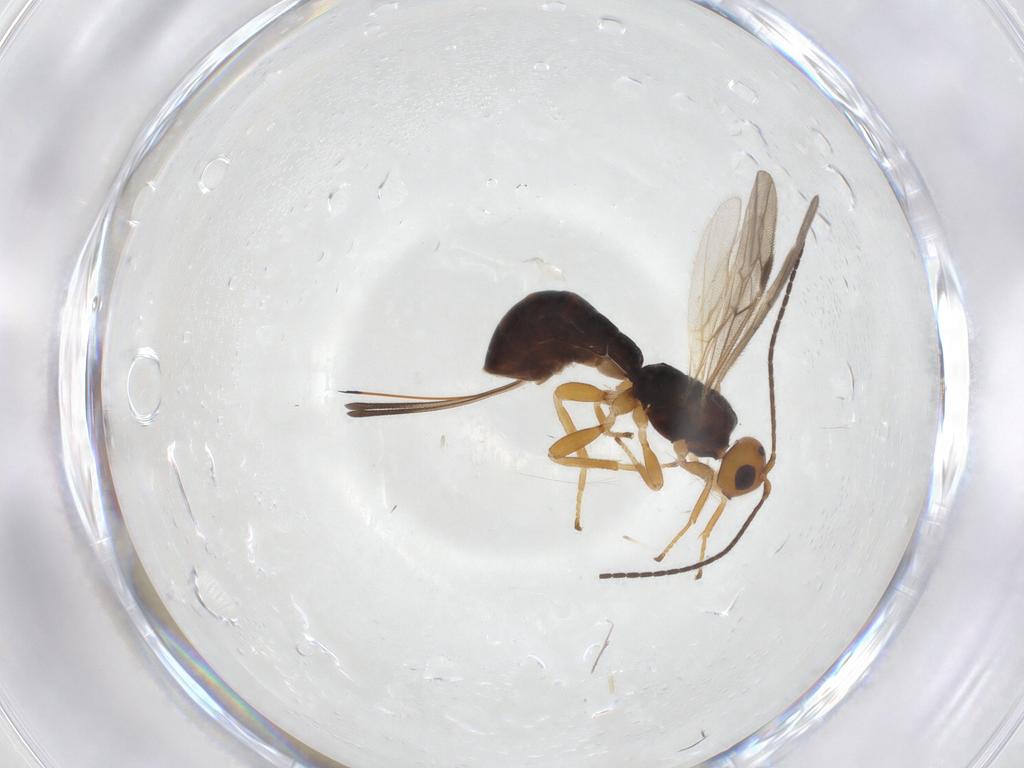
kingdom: Animalia
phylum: Arthropoda
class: Insecta
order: Hymenoptera
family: Braconidae
